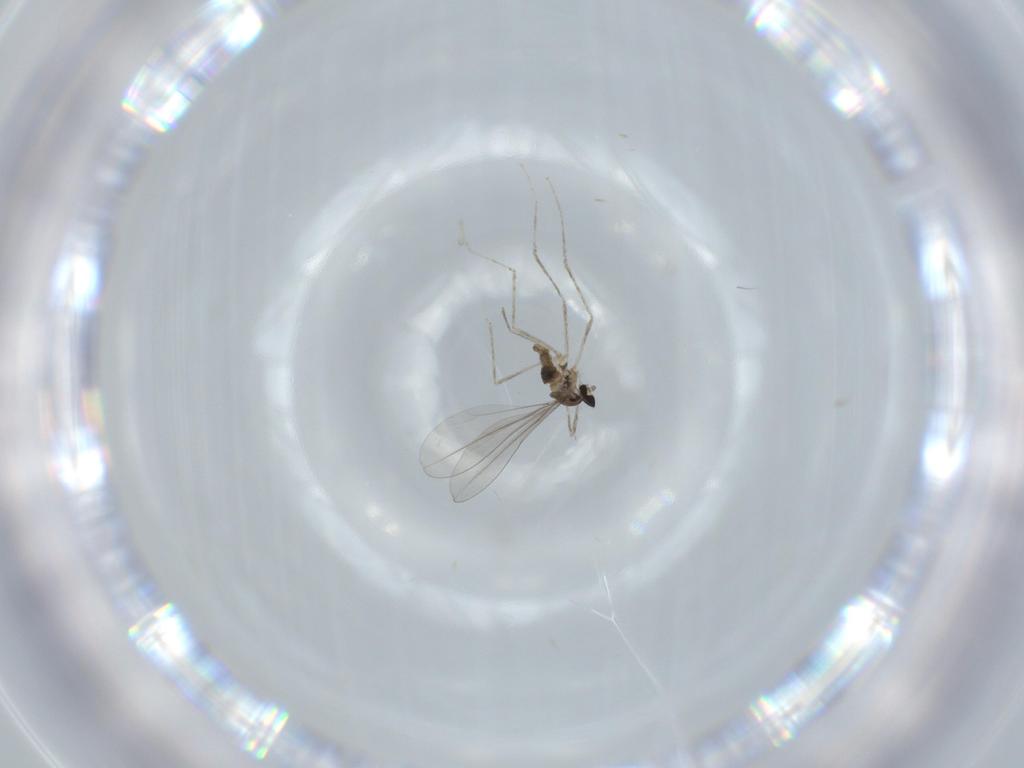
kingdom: Animalia
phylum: Arthropoda
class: Insecta
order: Diptera
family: Cecidomyiidae
